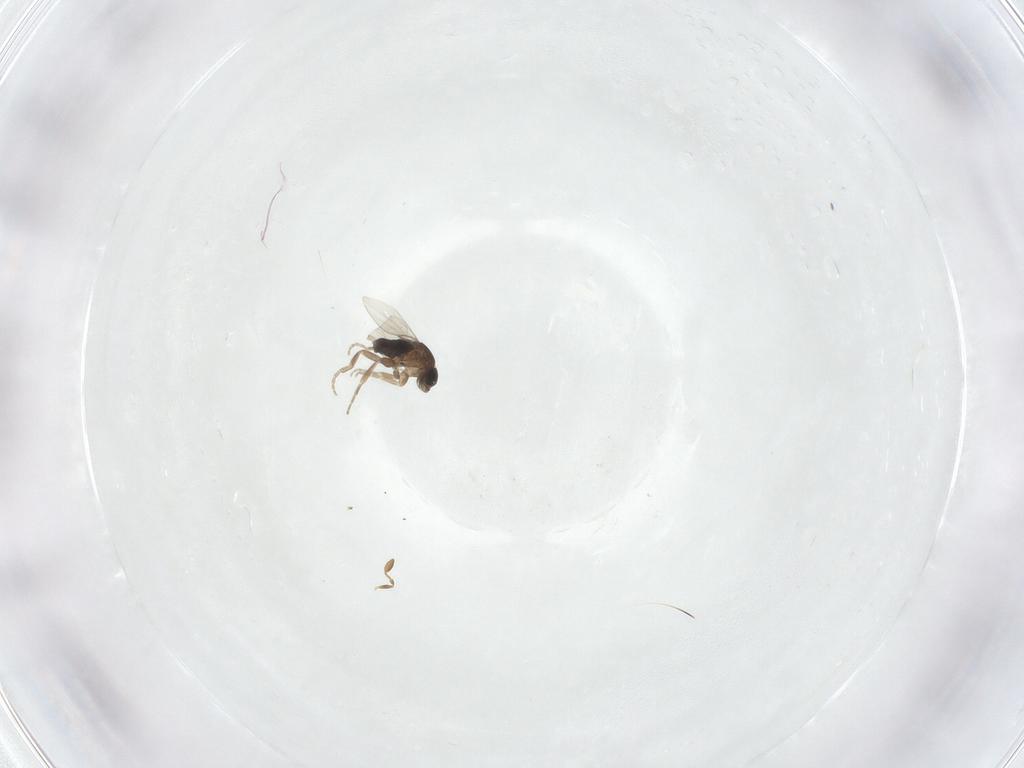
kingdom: Animalia
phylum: Arthropoda
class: Insecta
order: Diptera
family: Phoridae
